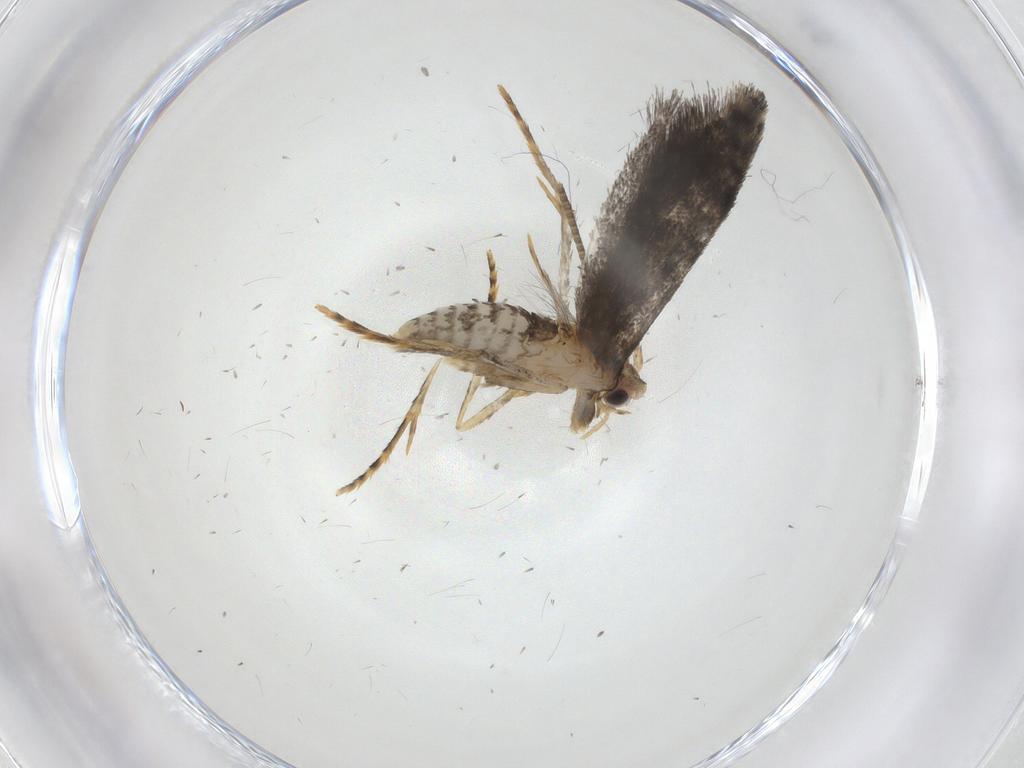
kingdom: Animalia
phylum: Arthropoda
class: Insecta
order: Lepidoptera
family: Tineidae
